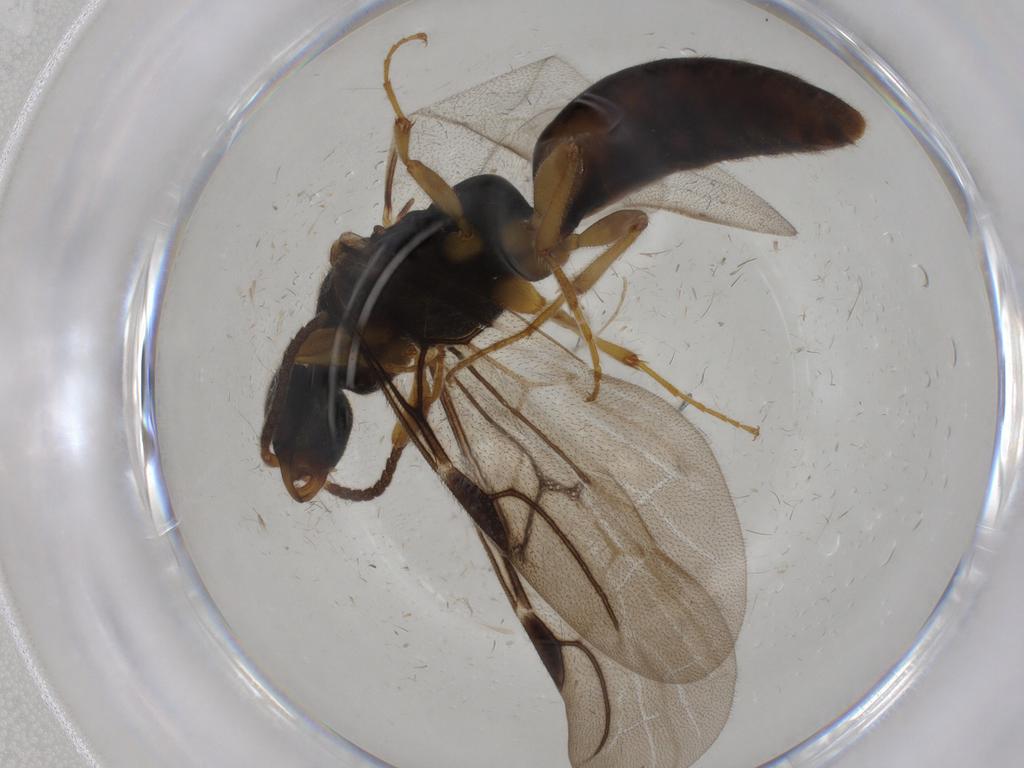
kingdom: Animalia
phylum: Arthropoda
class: Insecta
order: Hymenoptera
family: Bethylidae
